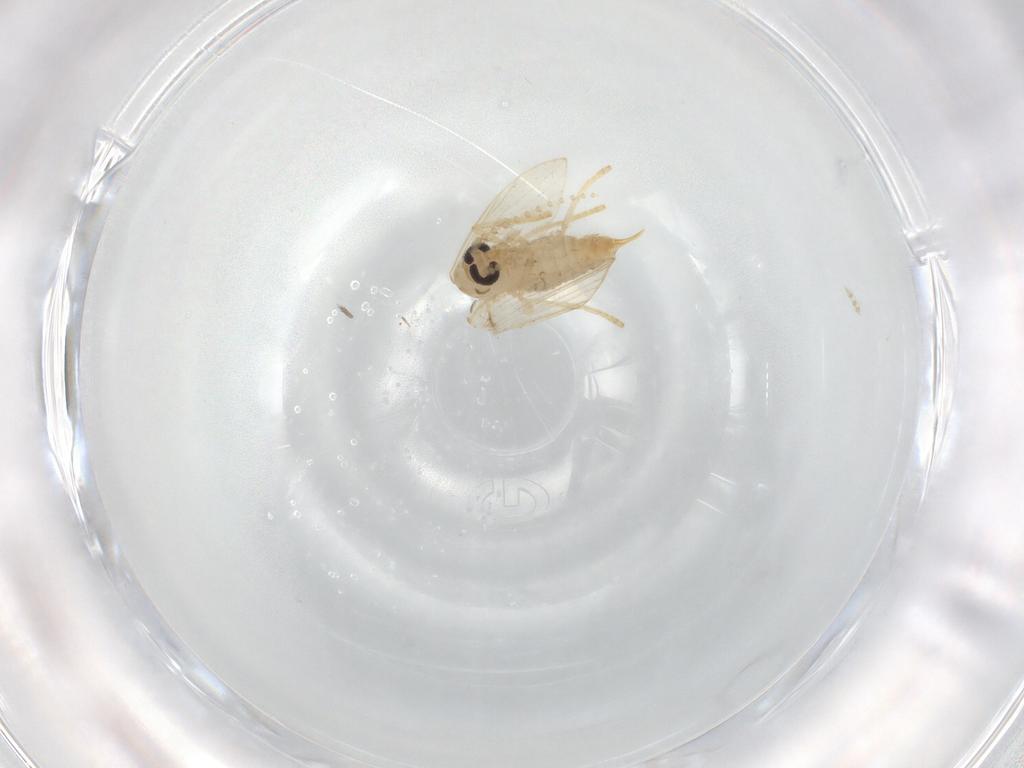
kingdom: Animalia
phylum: Arthropoda
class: Insecta
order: Diptera
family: Psychodidae
